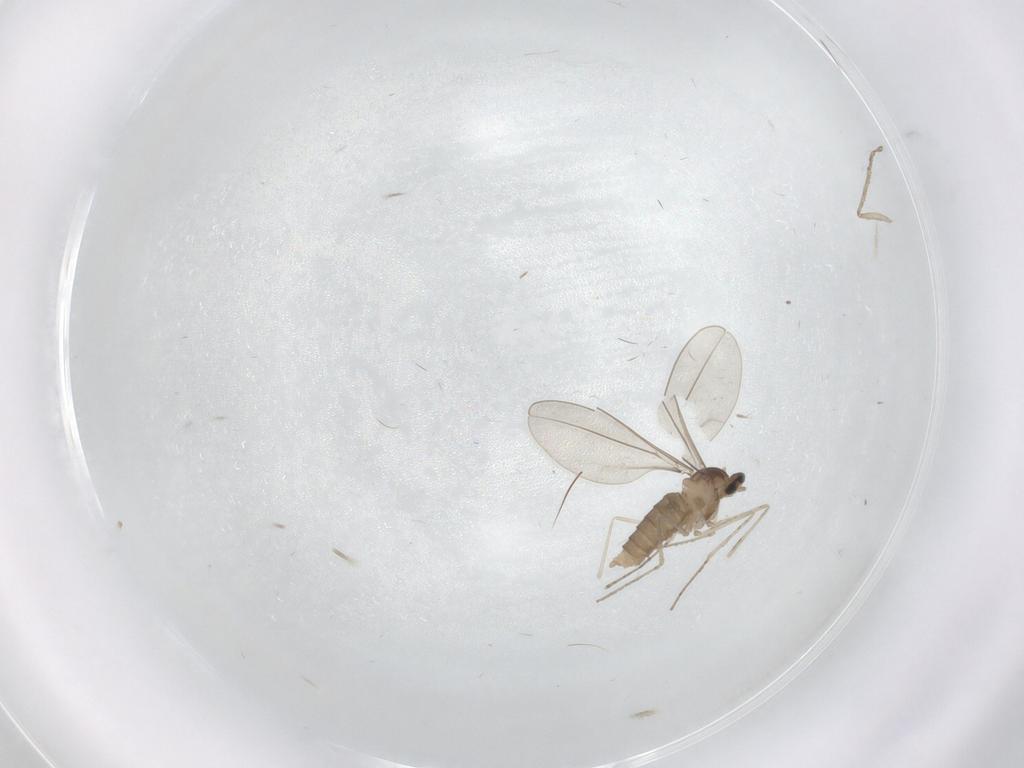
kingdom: Animalia
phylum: Arthropoda
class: Insecta
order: Diptera
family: Cecidomyiidae
